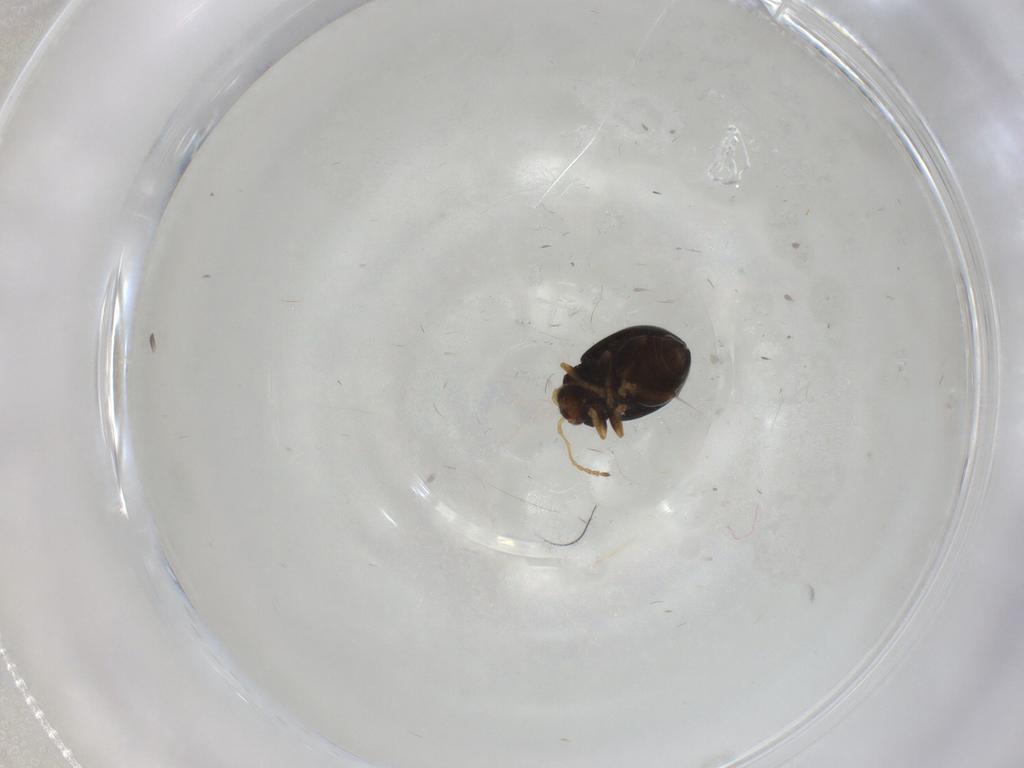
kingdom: Animalia
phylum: Arthropoda
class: Insecta
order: Coleoptera
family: Chrysomelidae
